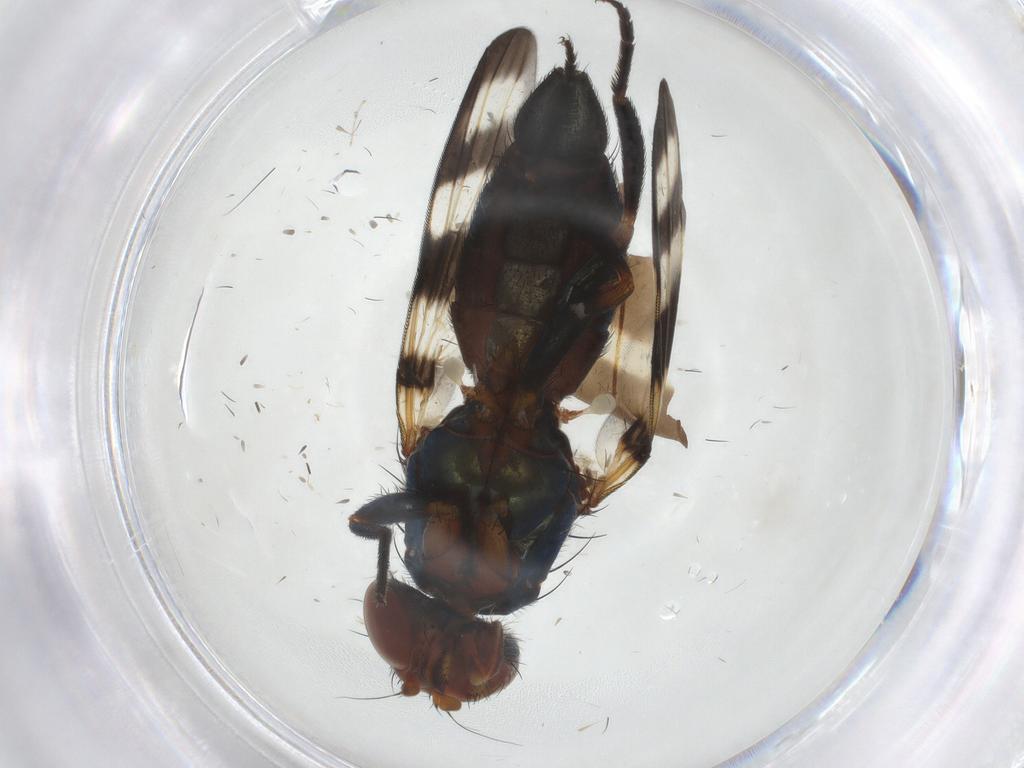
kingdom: Animalia
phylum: Arthropoda
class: Insecta
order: Diptera
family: Ulidiidae
